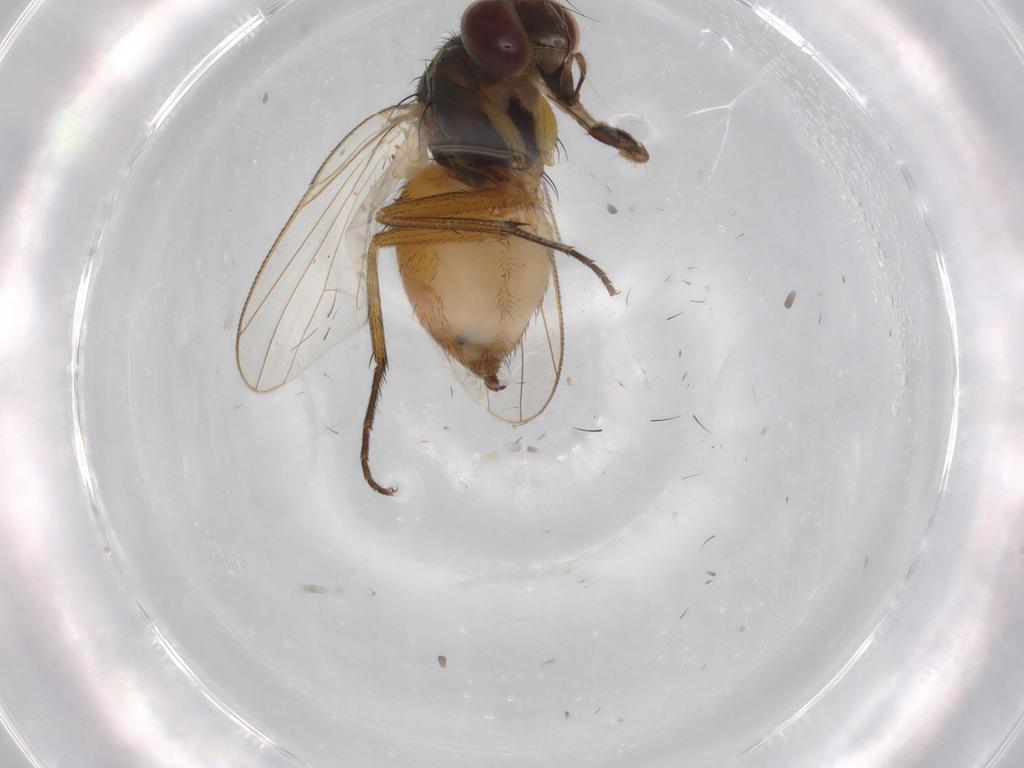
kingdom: Animalia
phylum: Arthropoda
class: Insecta
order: Diptera
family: Muscidae
